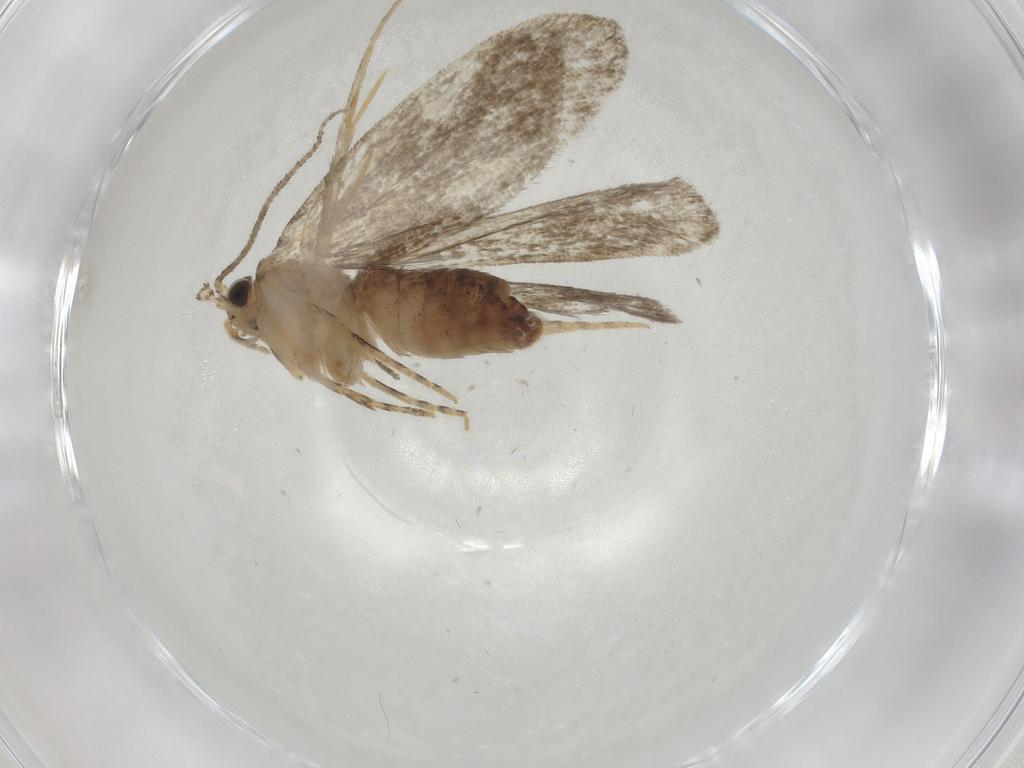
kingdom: Animalia
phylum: Arthropoda
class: Insecta
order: Lepidoptera
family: Tineidae
